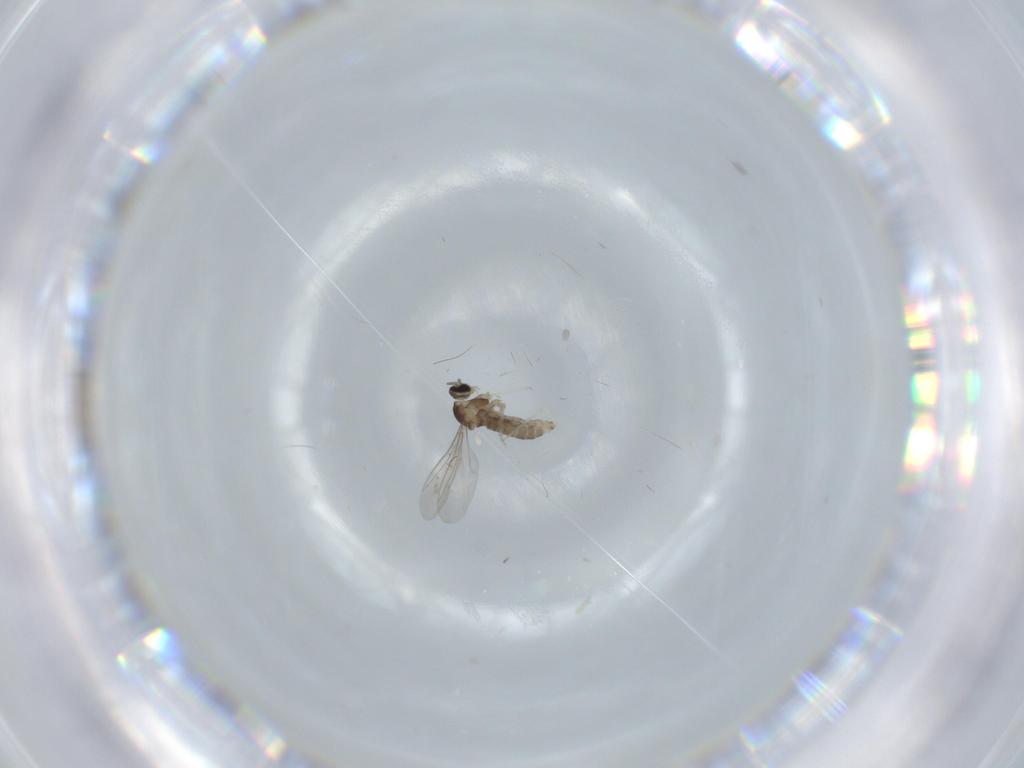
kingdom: Animalia
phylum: Arthropoda
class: Insecta
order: Diptera
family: Cecidomyiidae
